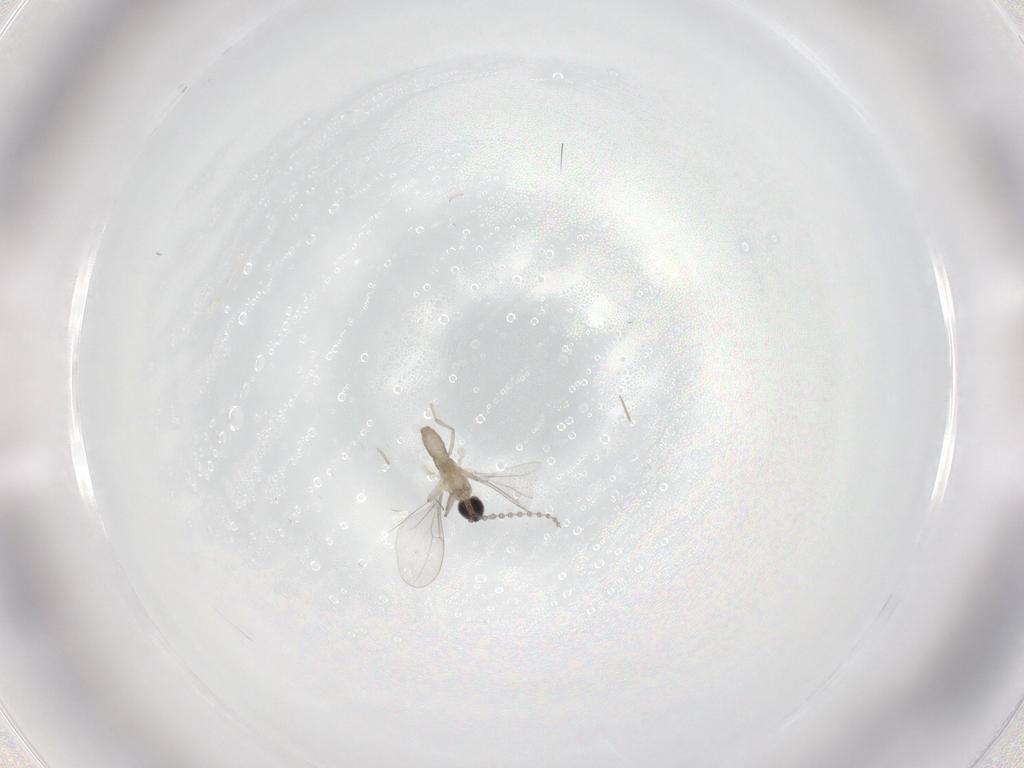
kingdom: Animalia
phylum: Arthropoda
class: Insecta
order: Diptera
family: Cecidomyiidae
